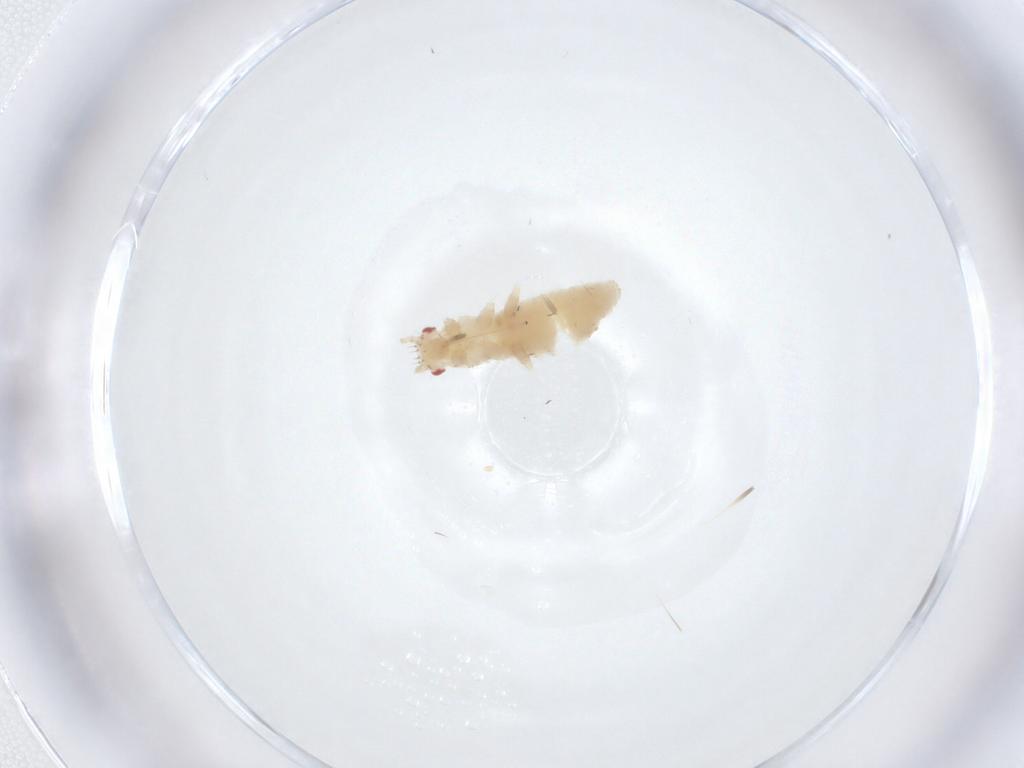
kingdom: Animalia
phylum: Arthropoda
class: Insecta
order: Hemiptera
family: Aphididae
